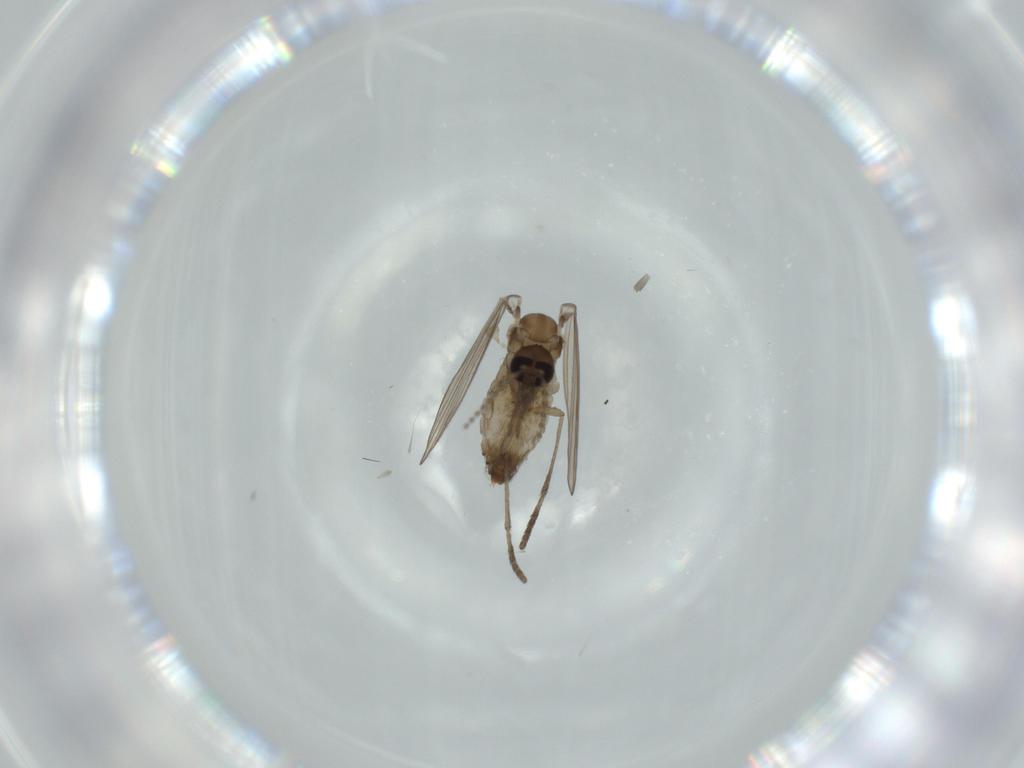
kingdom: Animalia
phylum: Arthropoda
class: Insecta
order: Diptera
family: Psychodidae
